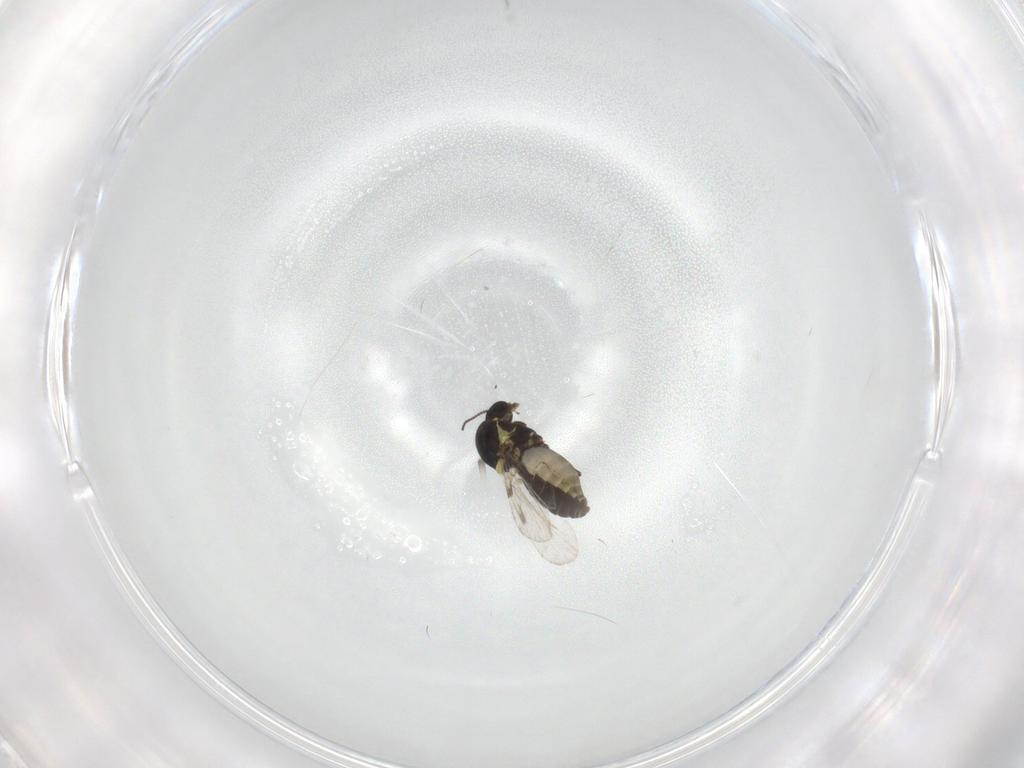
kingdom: Animalia
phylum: Arthropoda
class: Insecta
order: Diptera
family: Ceratopogonidae
